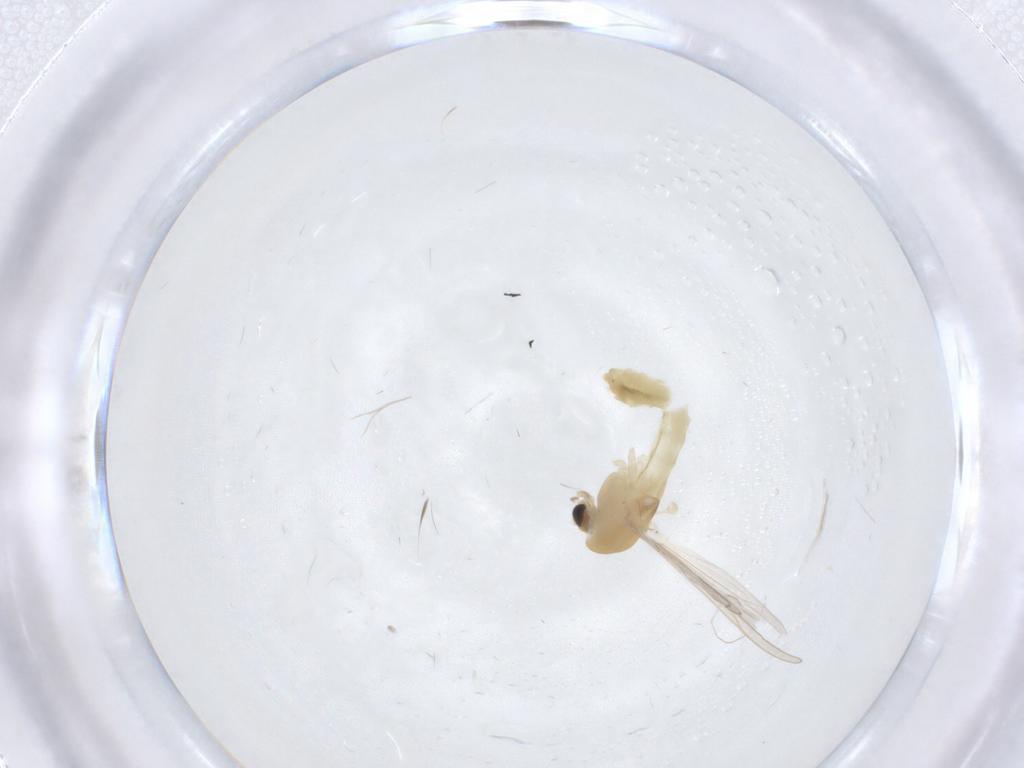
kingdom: Animalia
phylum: Arthropoda
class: Insecta
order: Diptera
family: Chironomidae
